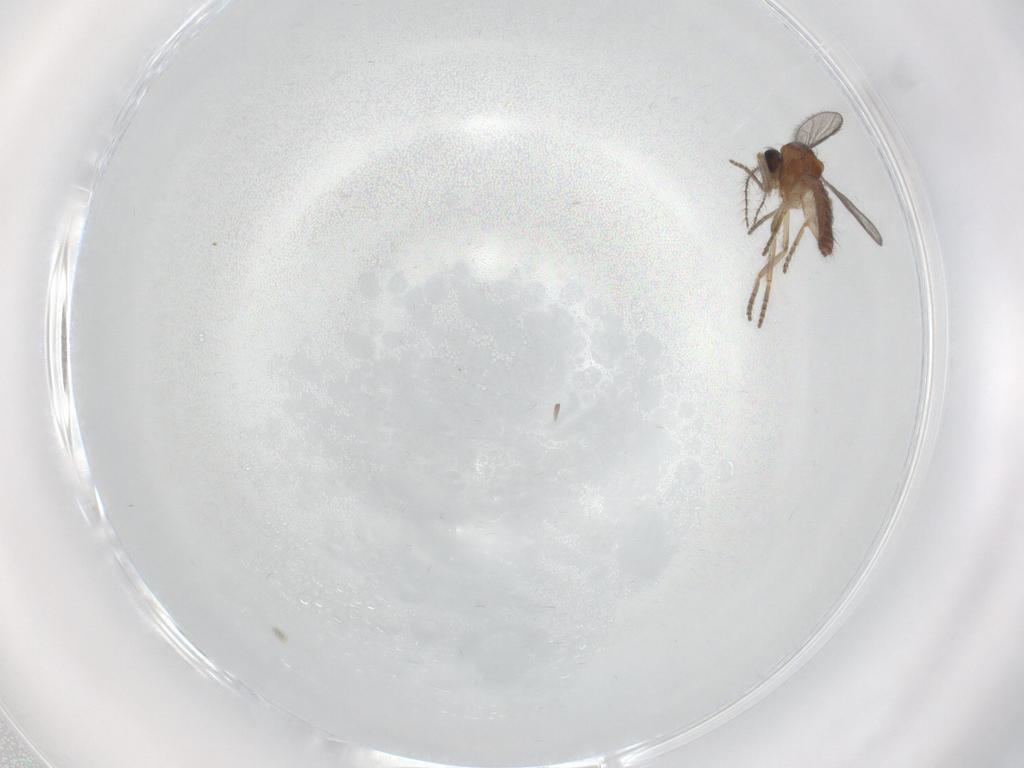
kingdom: Animalia
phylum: Arthropoda
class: Insecta
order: Diptera
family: Ceratopogonidae
